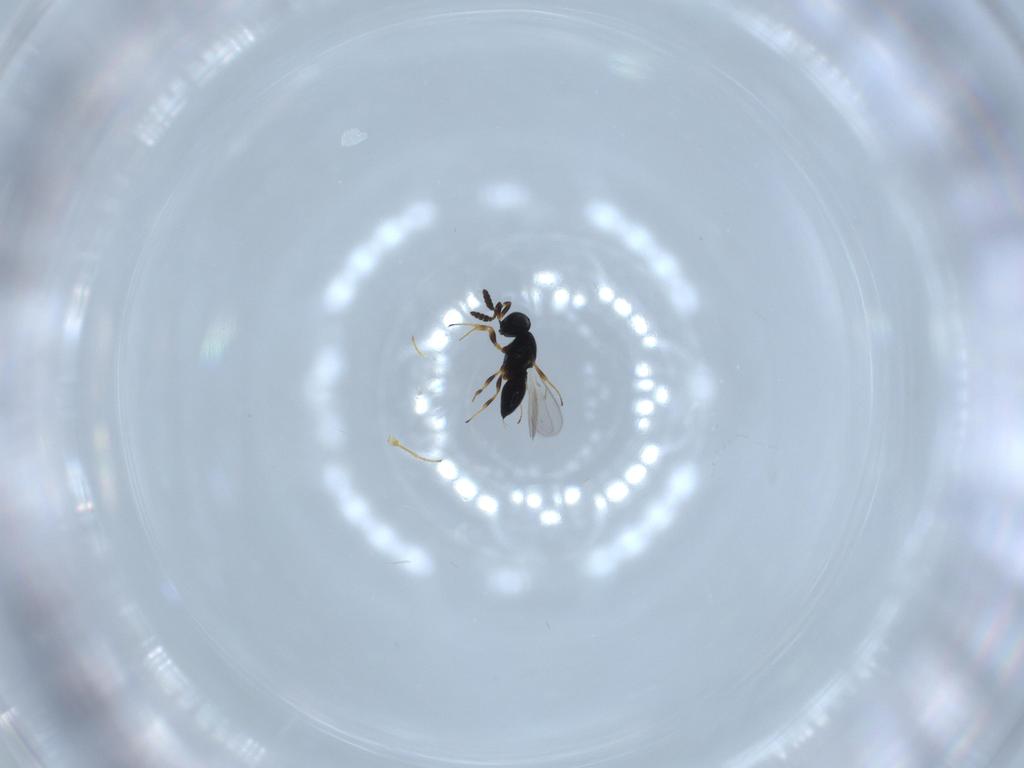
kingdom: Animalia
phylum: Arthropoda
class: Insecta
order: Hymenoptera
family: Scelionidae
